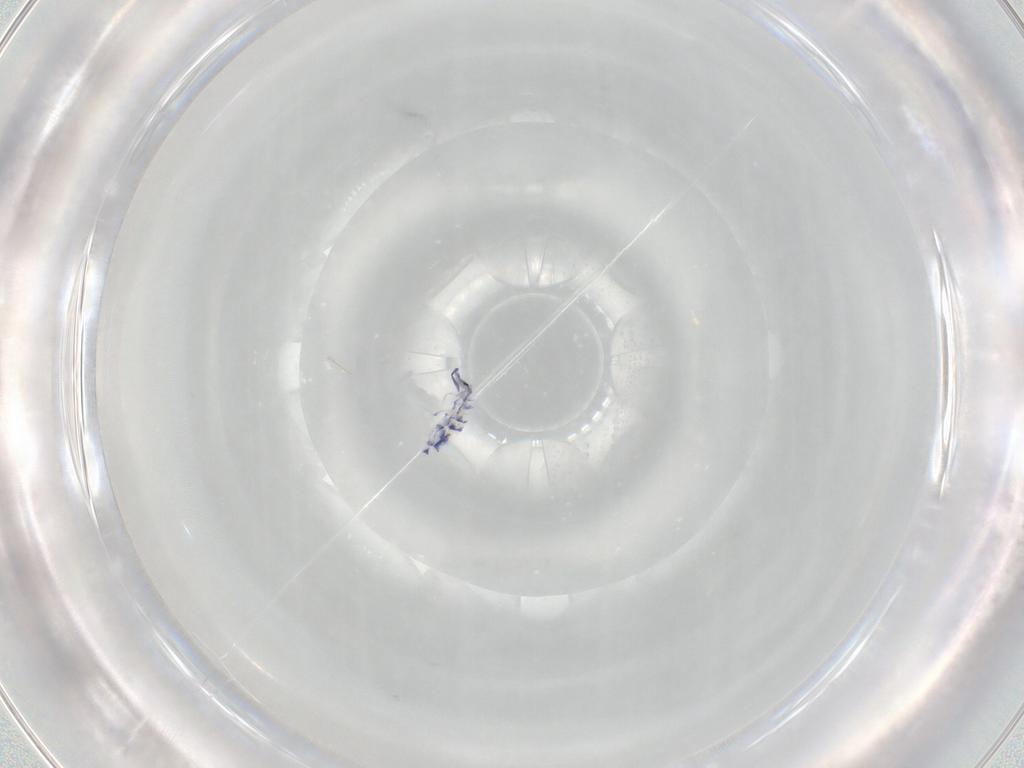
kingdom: Animalia
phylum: Arthropoda
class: Collembola
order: Entomobryomorpha
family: Entomobryidae
